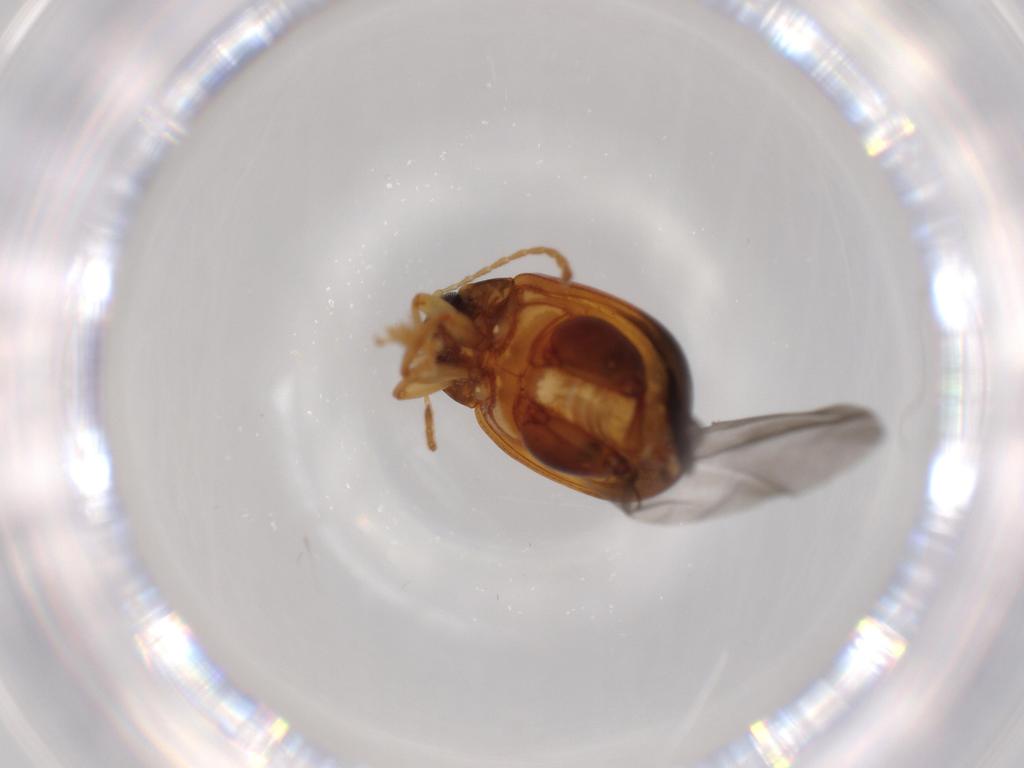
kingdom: Animalia
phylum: Arthropoda
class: Insecta
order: Coleoptera
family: Chrysomelidae
